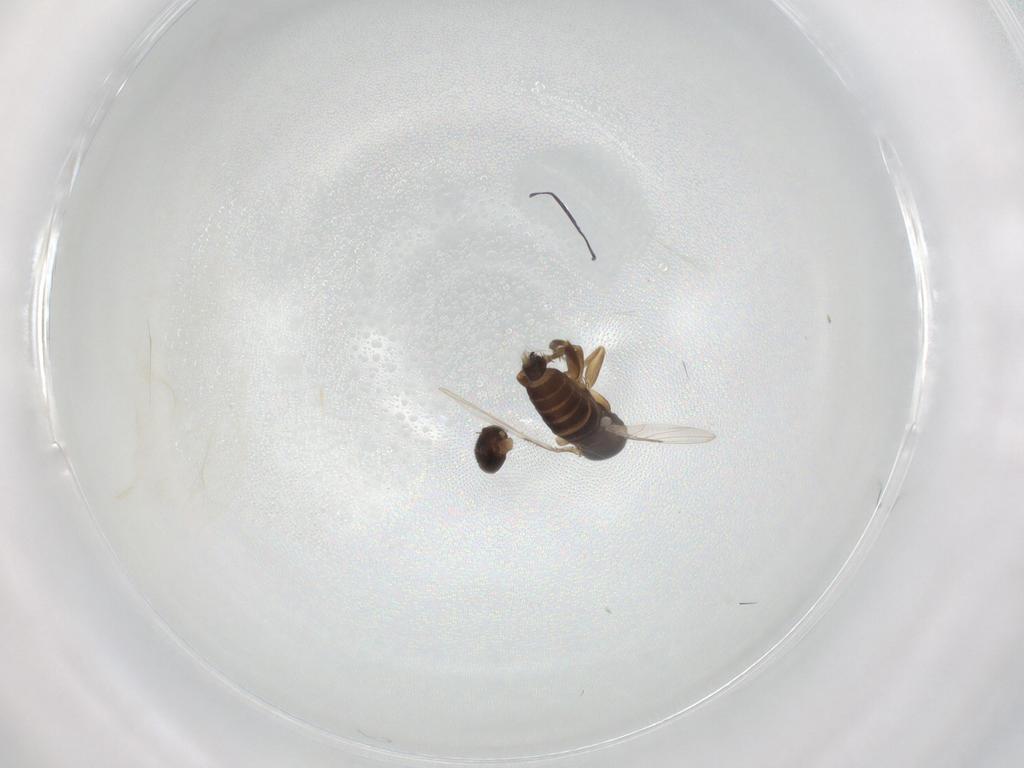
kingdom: Animalia
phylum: Arthropoda
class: Insecta
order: Diptera
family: Phoridae
